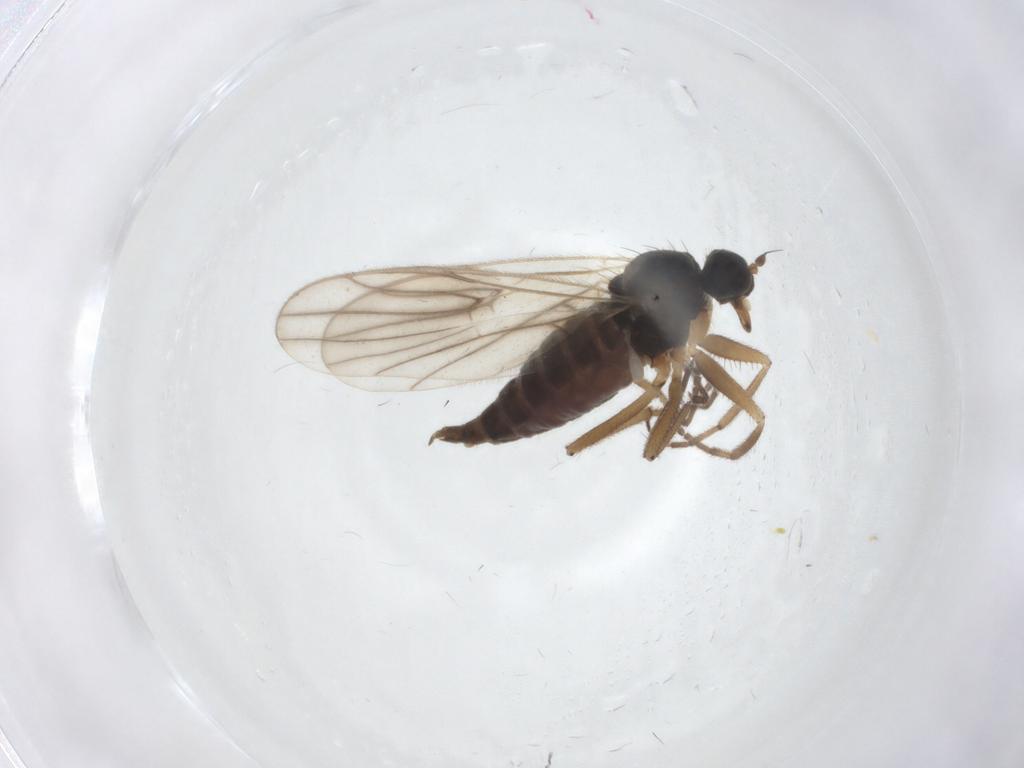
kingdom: Animalia
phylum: Arthropoda
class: Insecta
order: Diptera
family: Hybotidae
